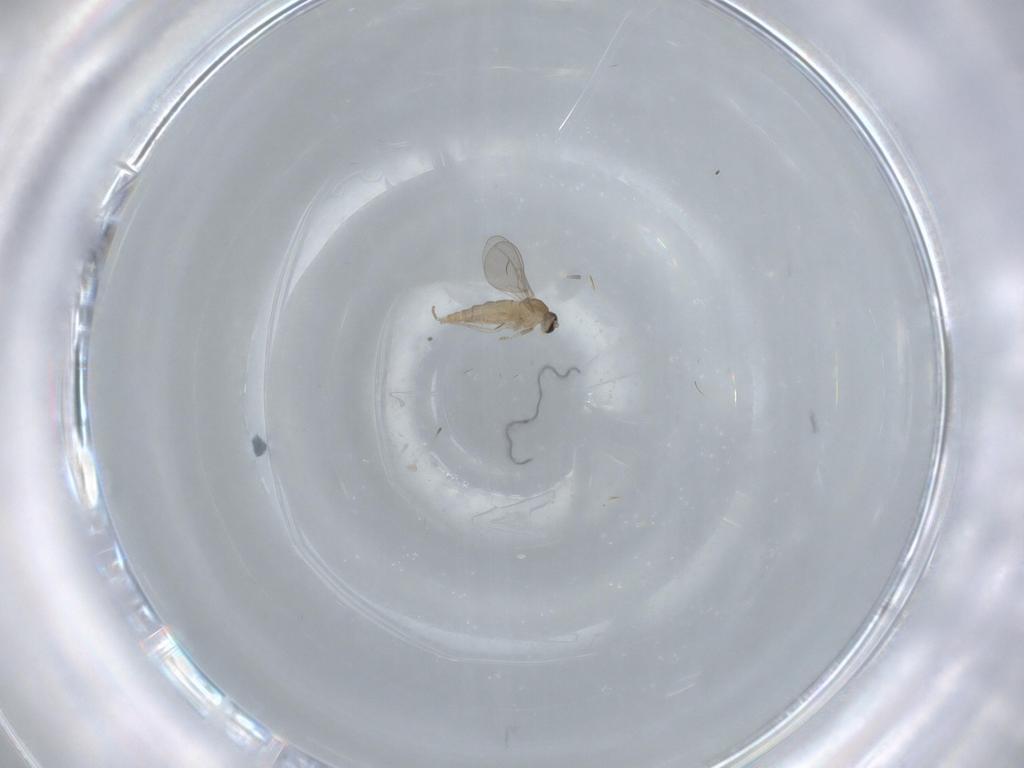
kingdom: Animalia
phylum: Arthropoda
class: Insecta
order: Diptera
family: Cecidomyiidae
